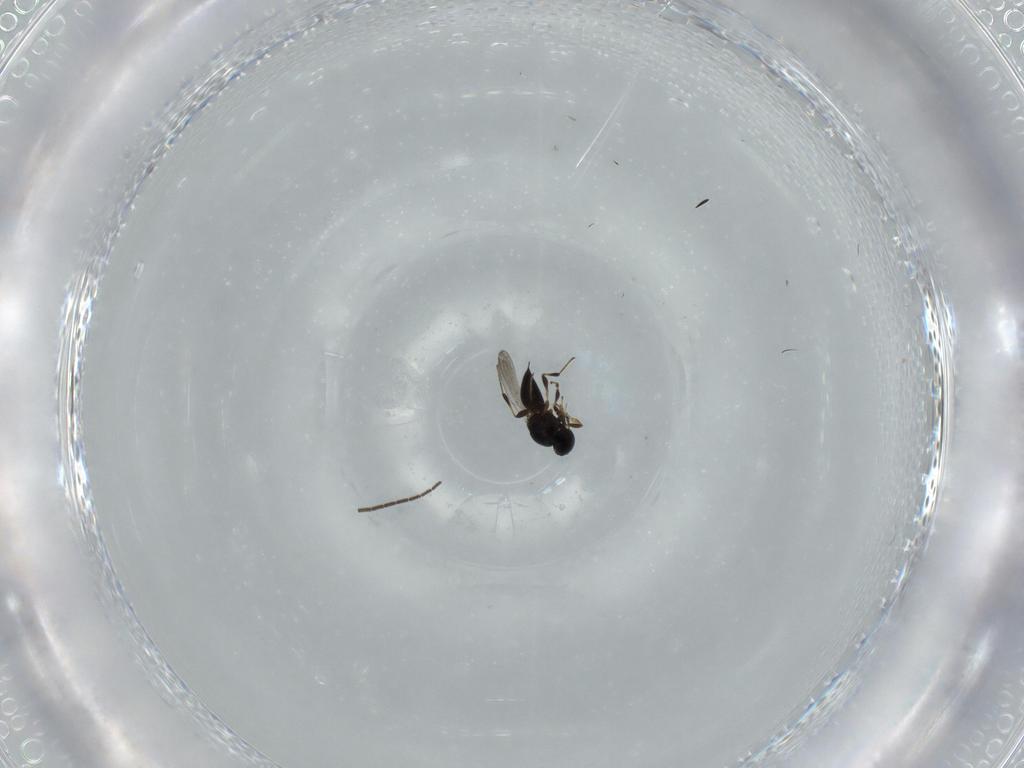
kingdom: Animalia
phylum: Arthropoda
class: Insecta
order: Hymenoptera
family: Platygastridae
